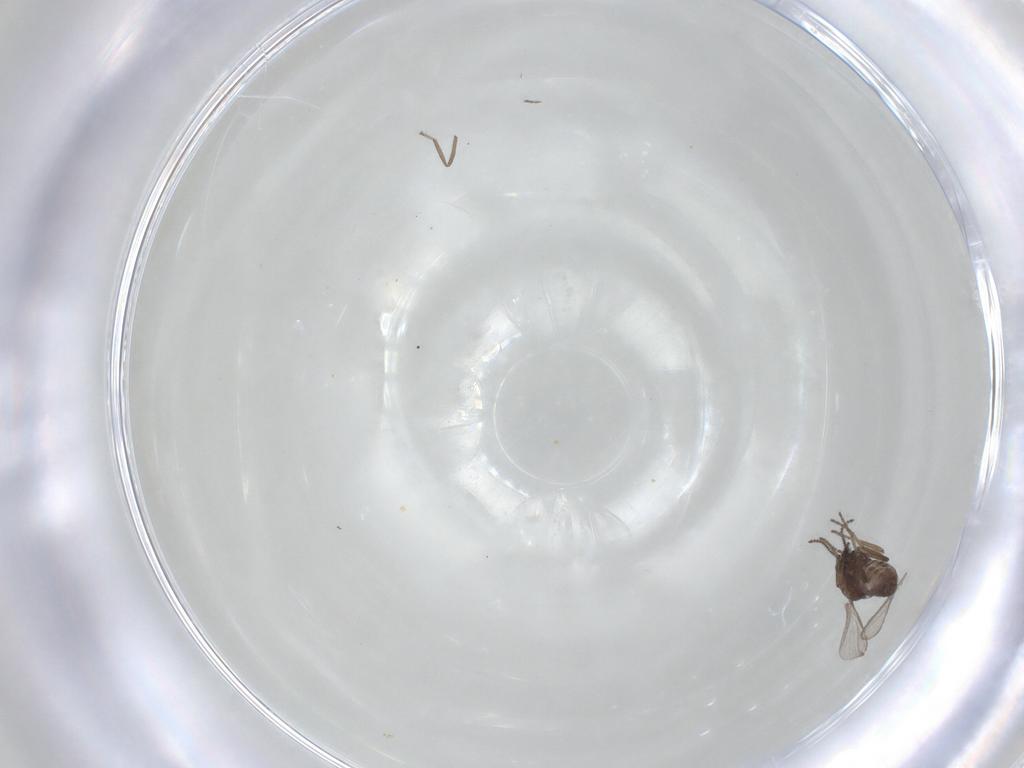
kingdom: Animalia
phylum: Arthropoda
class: Insecta
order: Diptera
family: Ceratopogonidae
